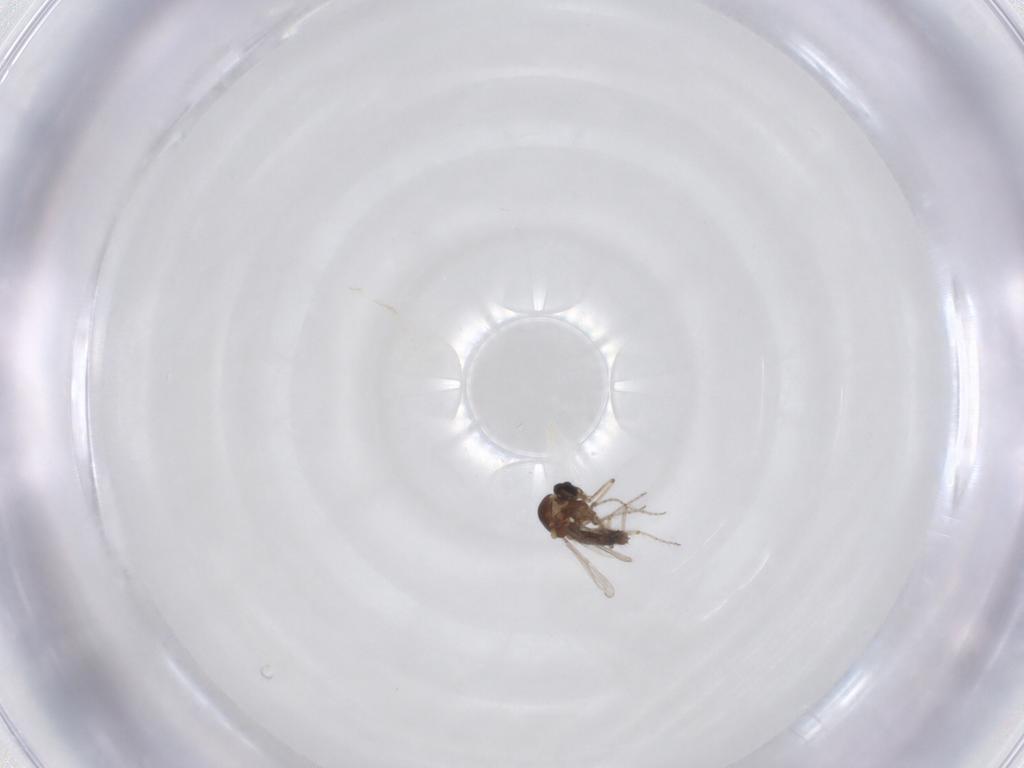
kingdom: Animalia
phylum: Arthropoda
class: Insecta
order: Diptera
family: Ceratopogonidae
